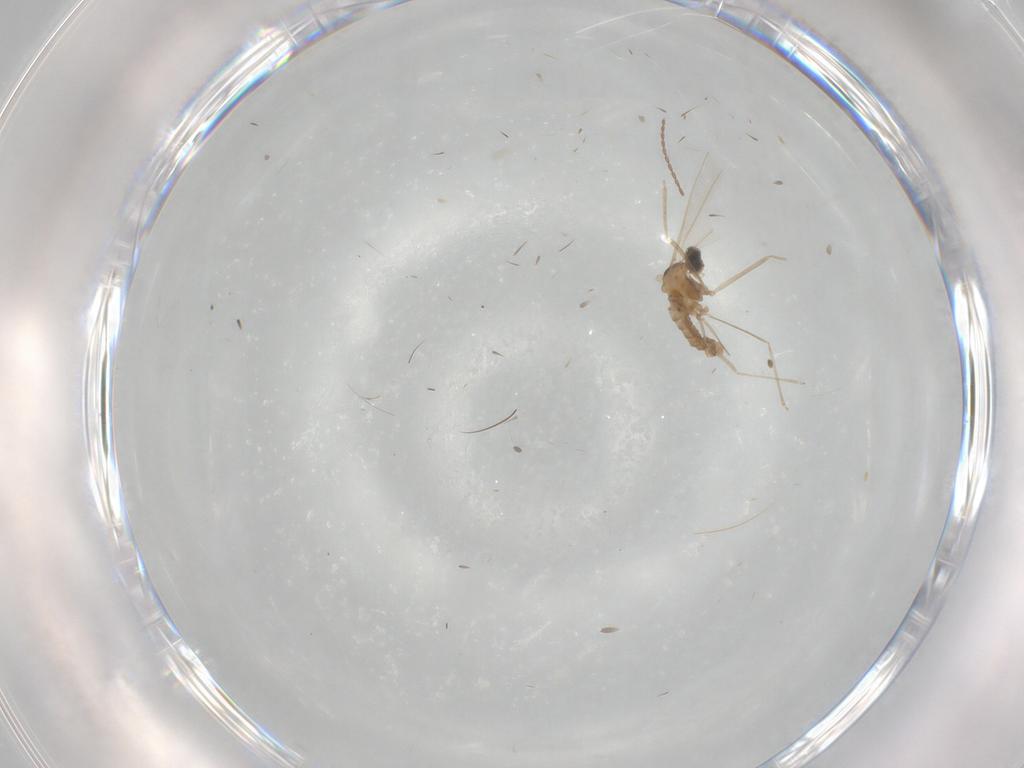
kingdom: Animalia
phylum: Arthropoda
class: Insecta
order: Diptera
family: Cecidomyiidae
